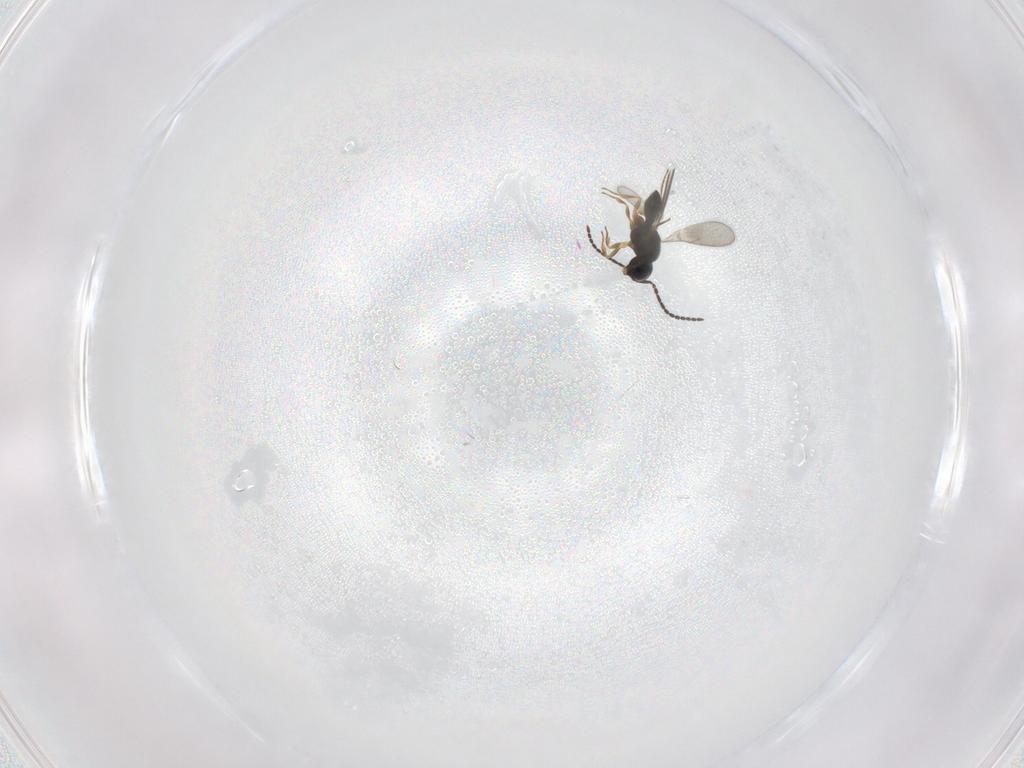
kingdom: Animalia
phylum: Arthropoda
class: Insecta
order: Hymenoptera
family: Scelionidae
